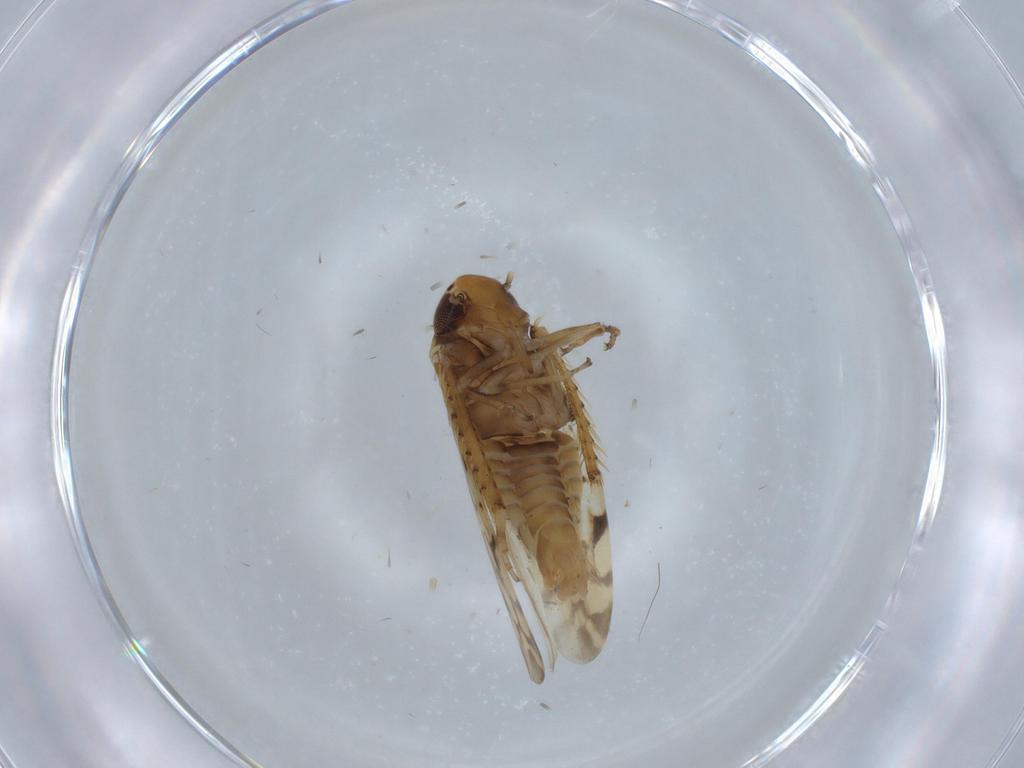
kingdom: Animalia
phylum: Arthropoda
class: Insecta
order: Hemiptera
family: Cicadellidae
